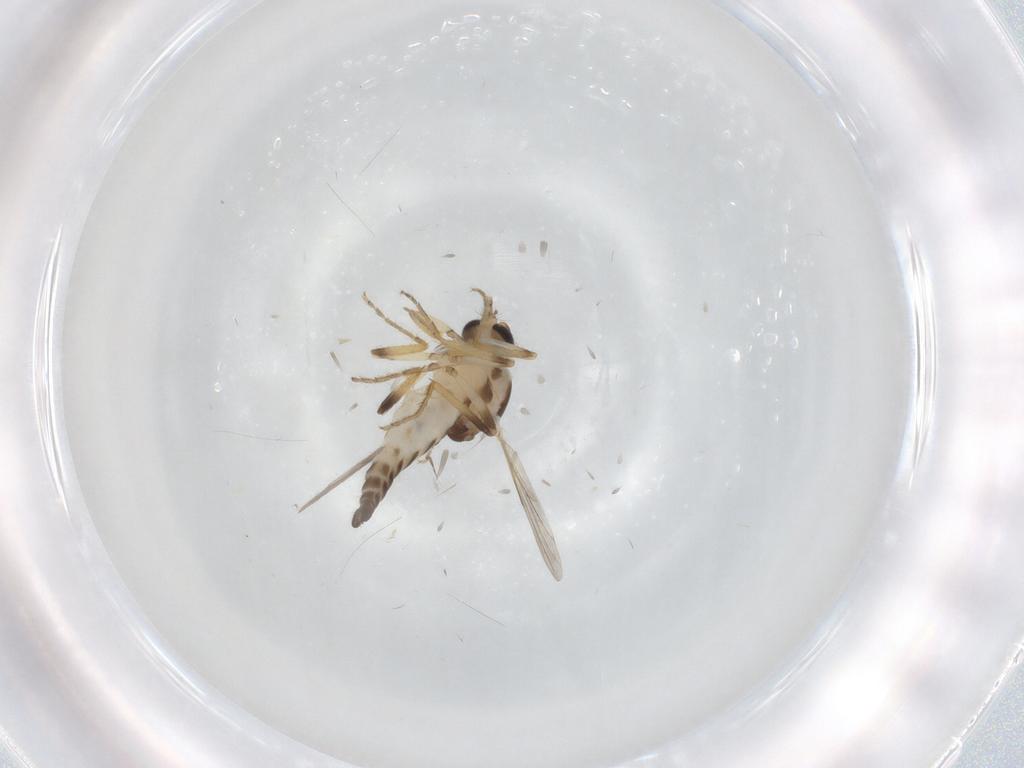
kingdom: Animalia
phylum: Arthropoda
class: Insecta
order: Diptera
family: Ceratopogonidae
